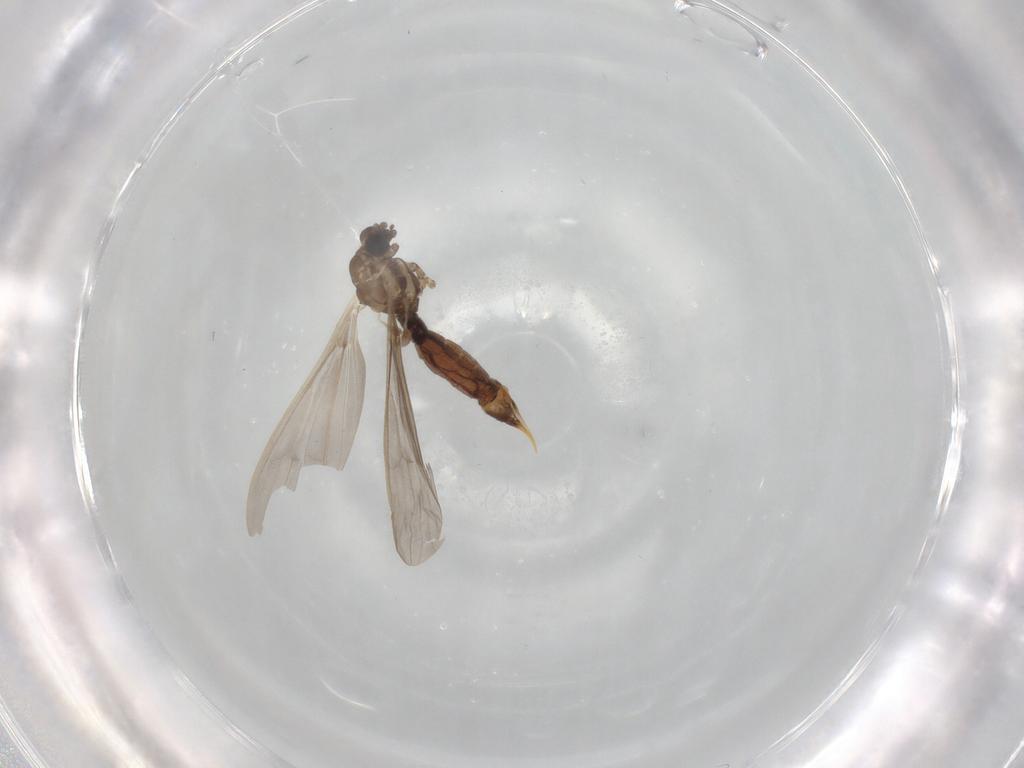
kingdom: Animalia
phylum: Arthropoda
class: Insecta
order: Diptera
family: Limoniidae
